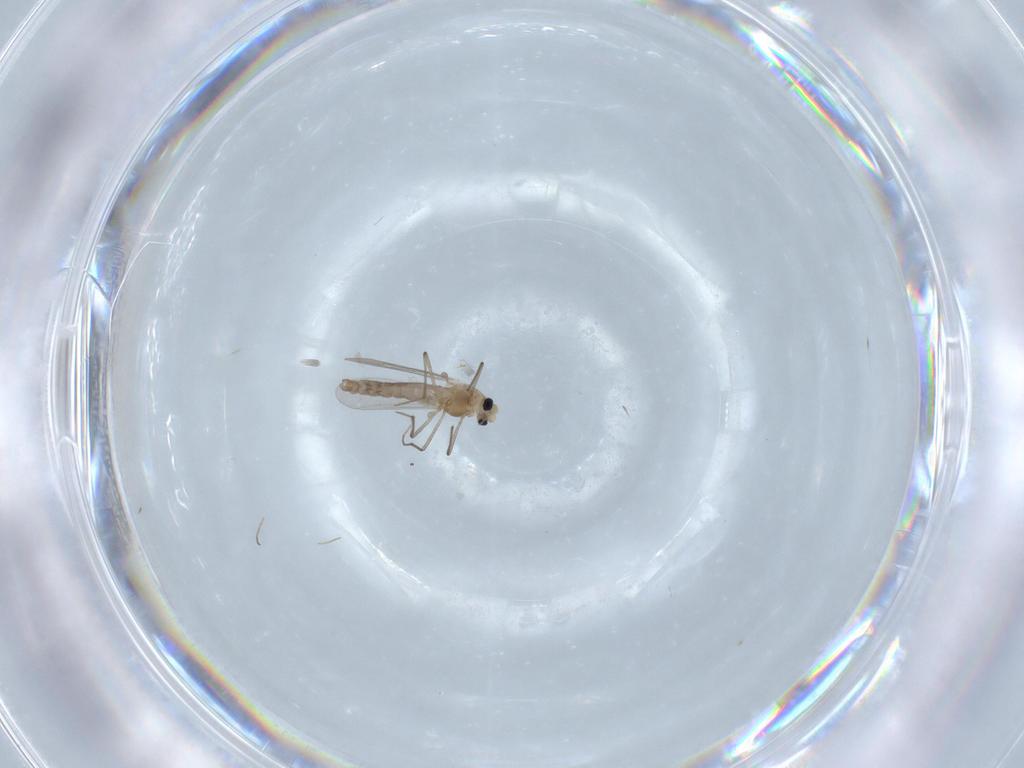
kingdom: Animalia
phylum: Arthropoda
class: Insecta
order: Diptera
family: Chironomidae
